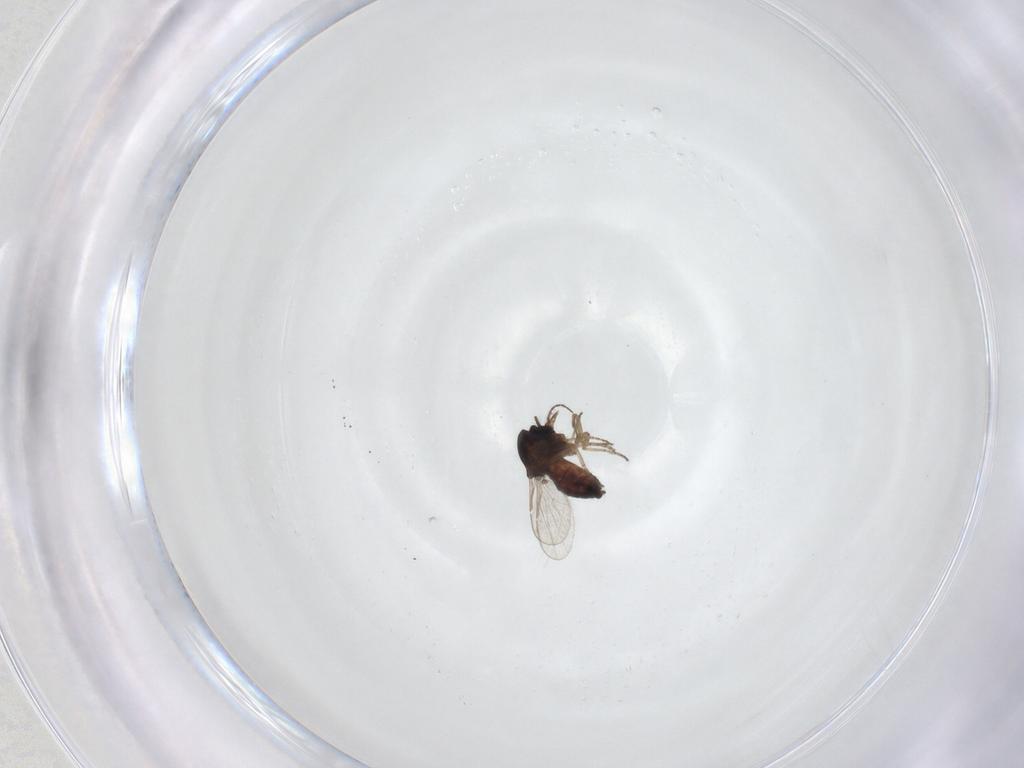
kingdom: Animalia
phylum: Arthropoda
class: Insecta
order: Diptera
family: Ceratopogonidae
